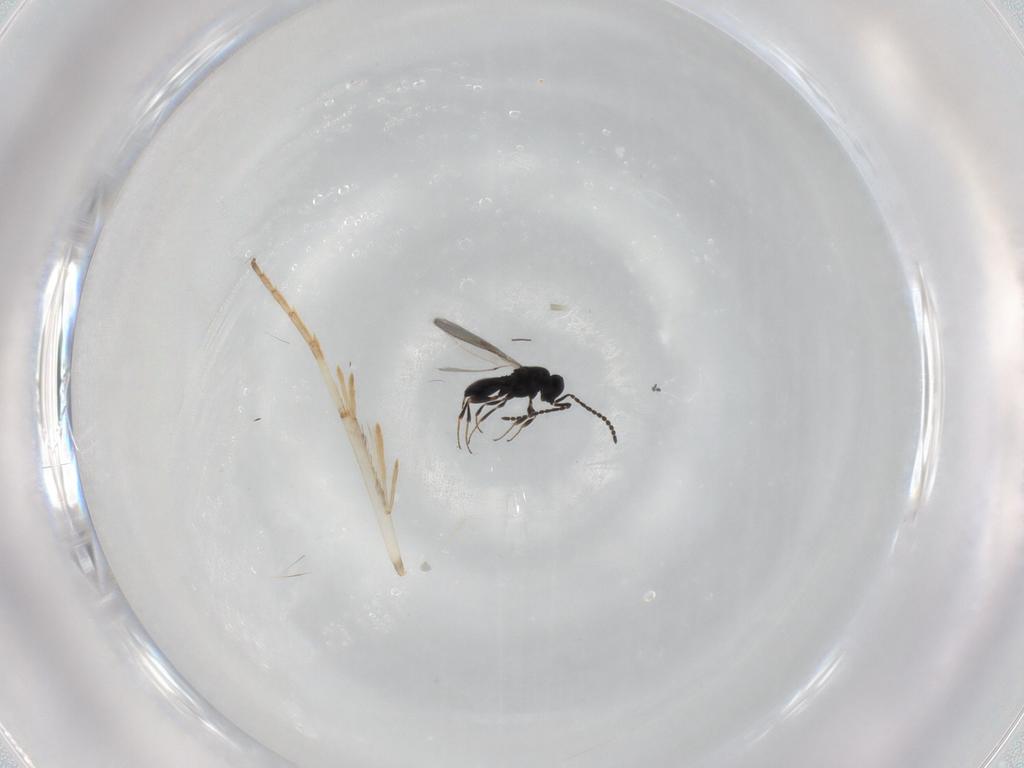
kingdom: Animalia
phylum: Arthropoda
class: Insecta
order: Hymenoptera
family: Scelionidae
